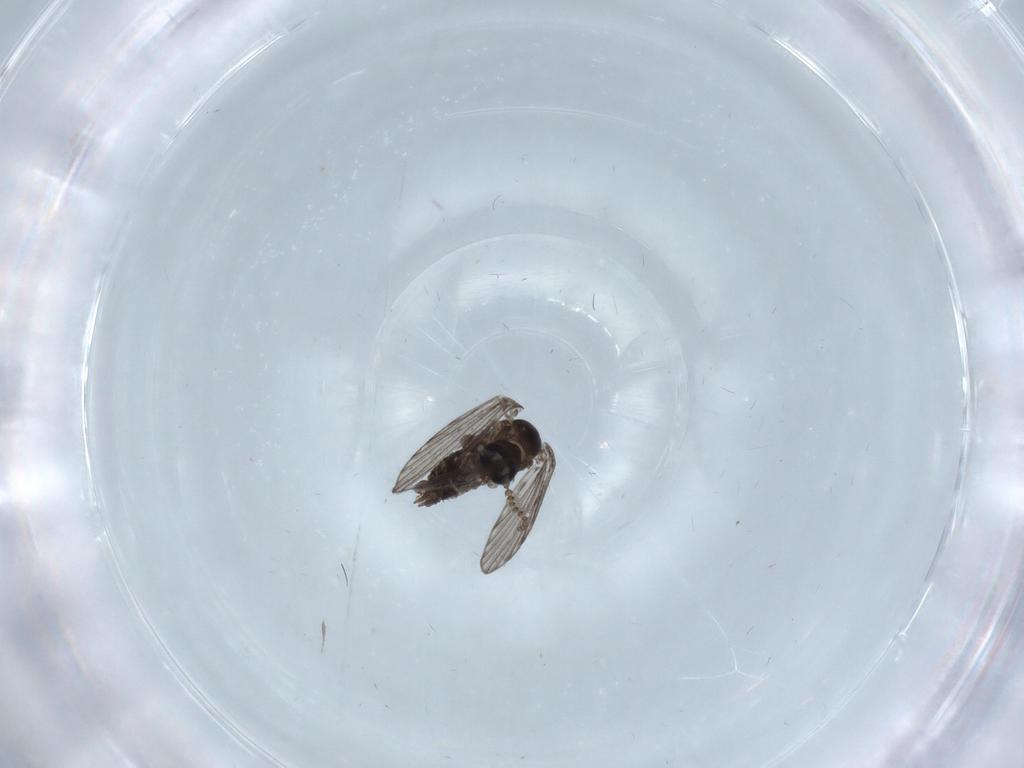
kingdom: Animalia
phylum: Arthropoda
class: Insecta
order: Diptera
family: Psychodidae
